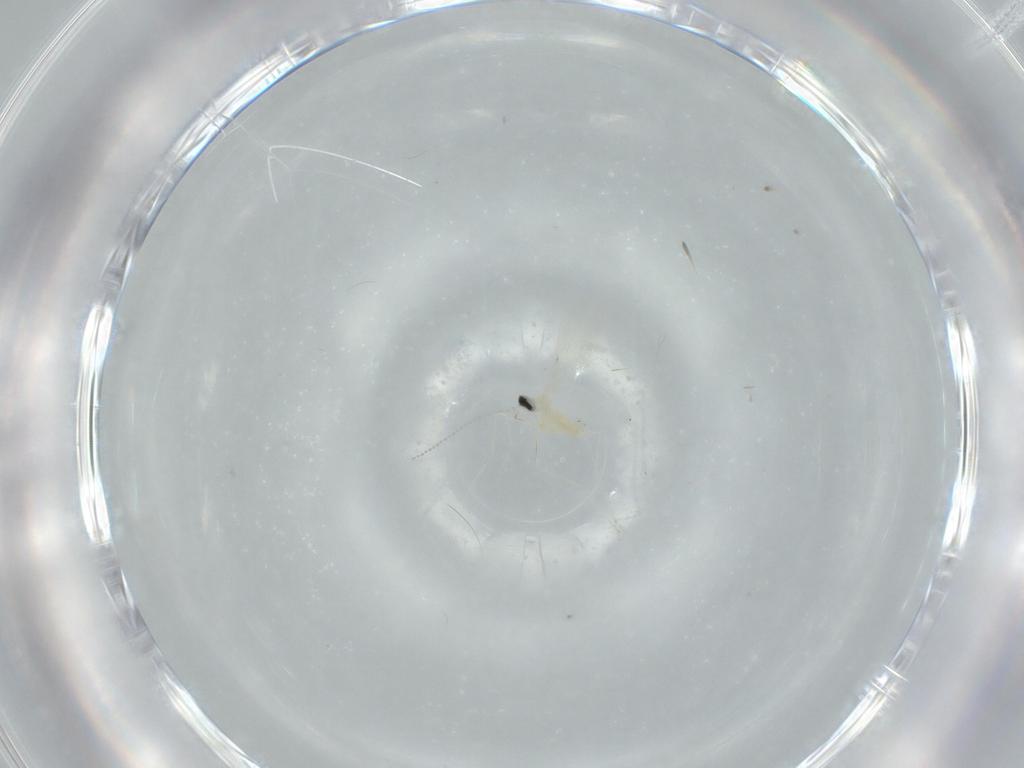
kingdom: Animalia
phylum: Arthropoda
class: Insecta
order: Diptera
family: Cecidomyiidae
